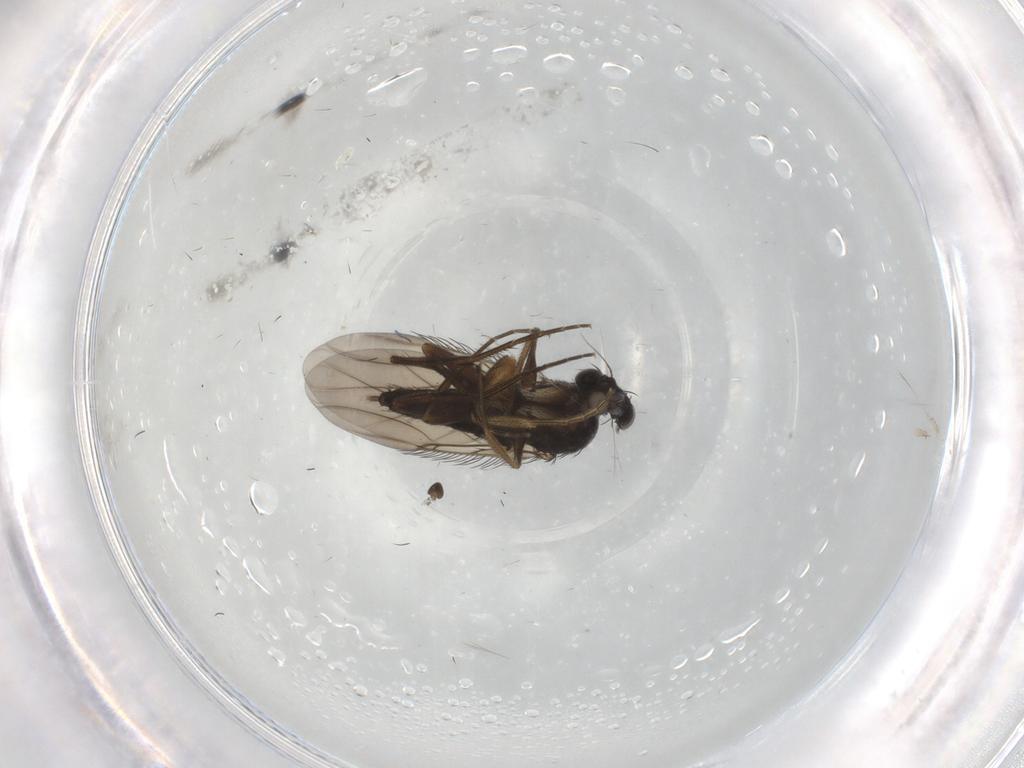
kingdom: Animalia
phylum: Arthropoda
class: Insecta
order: Diptera
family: Phoridae
